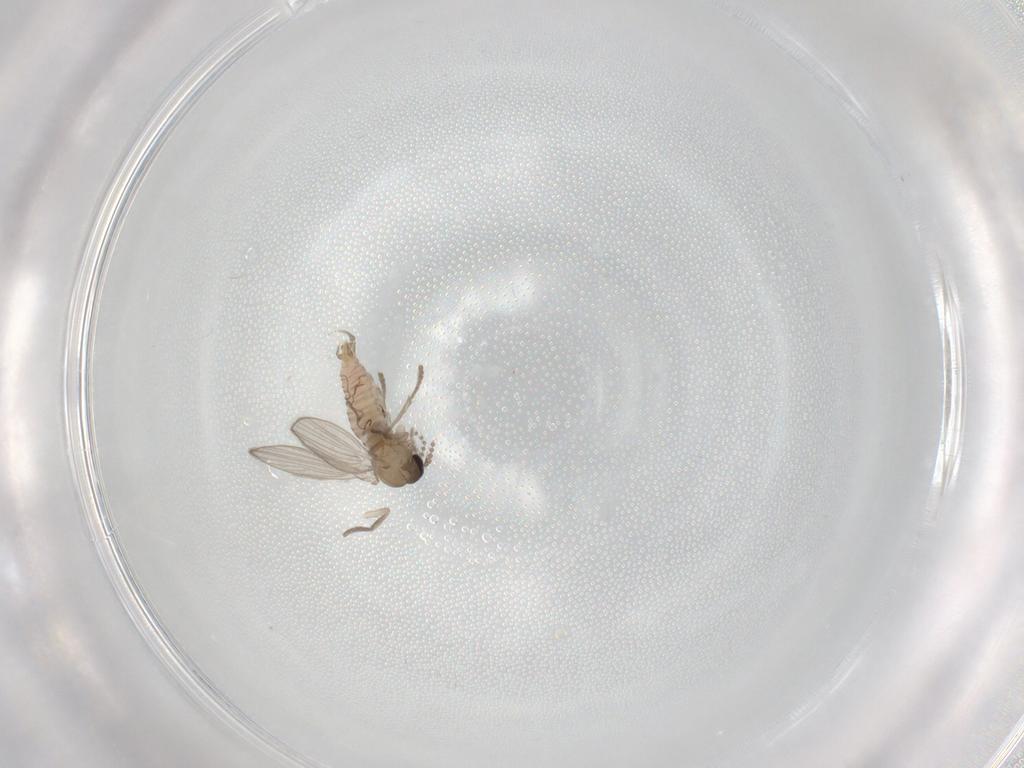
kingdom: Animalia
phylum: Arthropoda
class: Insecta
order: Diptera
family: Psychodidae
